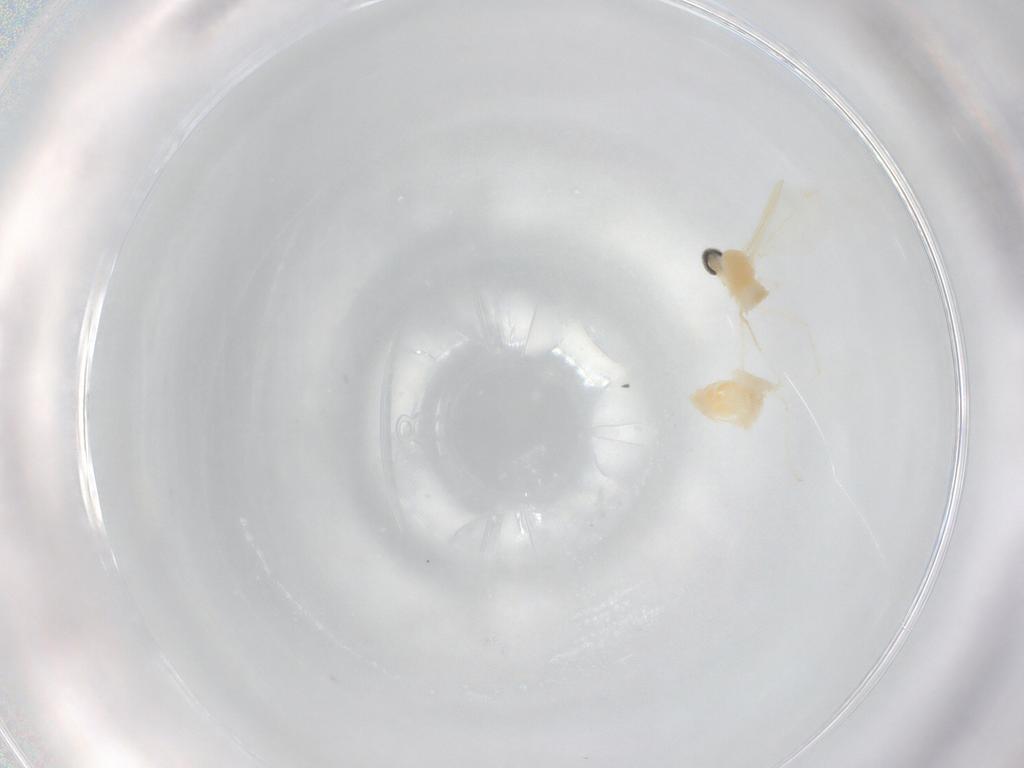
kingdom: Animalia
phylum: Arthropoda
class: Insecta
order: Diptera
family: Cecidomyiidae
